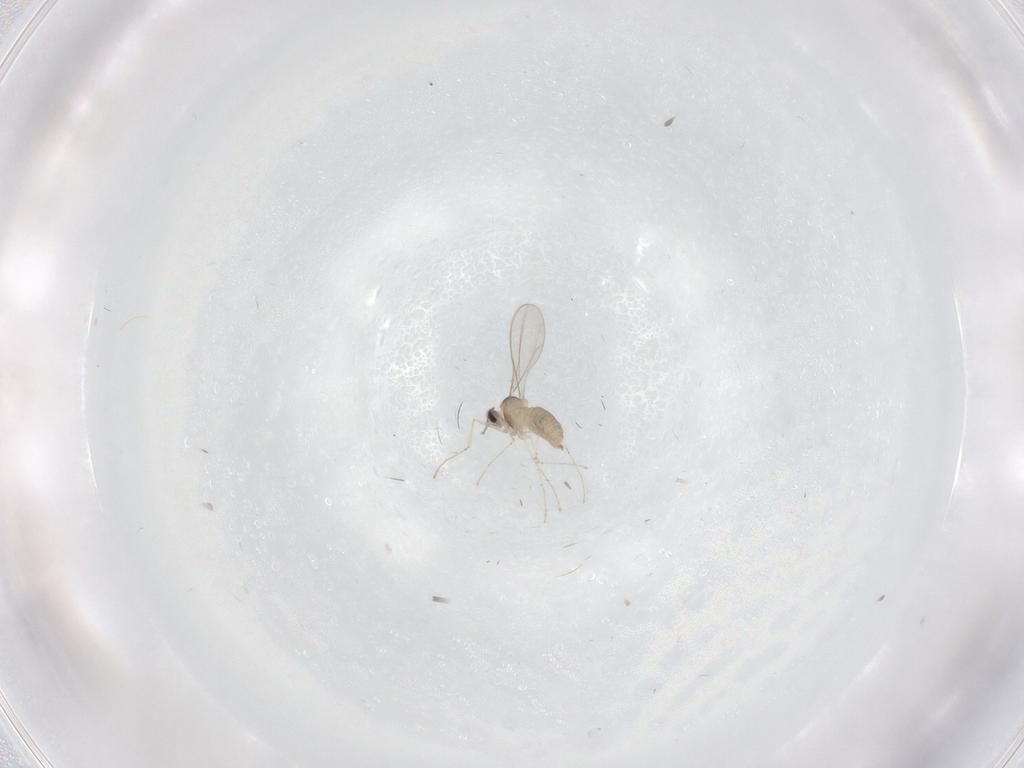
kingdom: Animalia
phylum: Arthropoda
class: Insecta
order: Diptera
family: Cecidomyiidae
